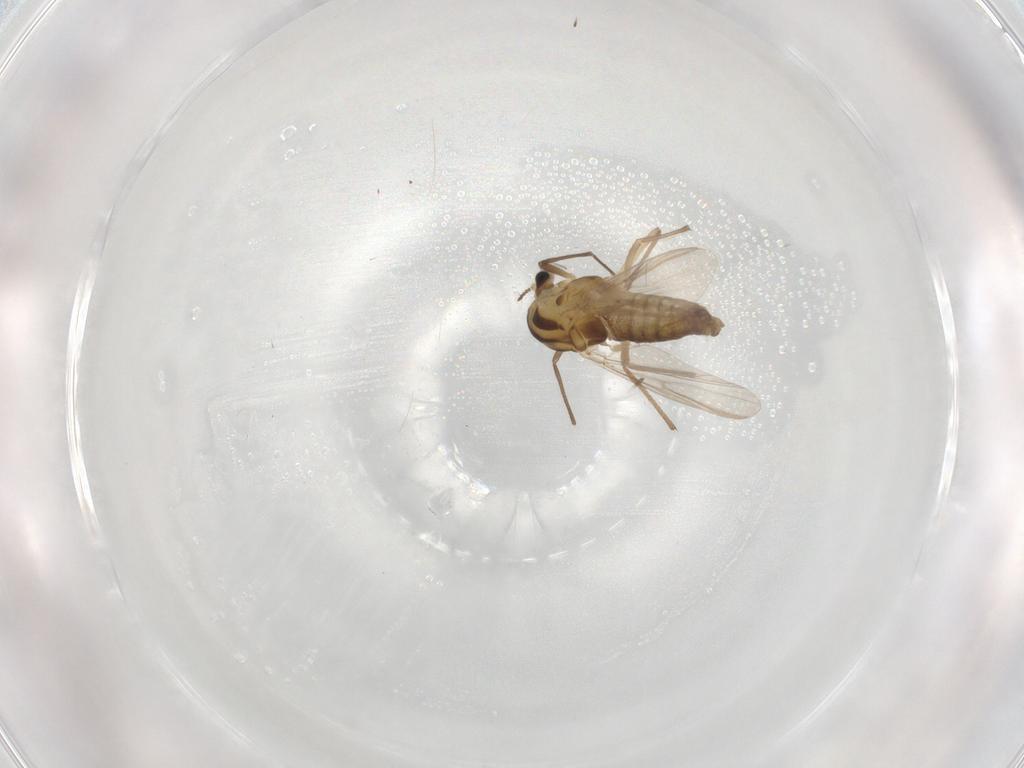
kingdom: Animalia
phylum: Arthropoda
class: Insecta
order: Diptera
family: Chironomidae
